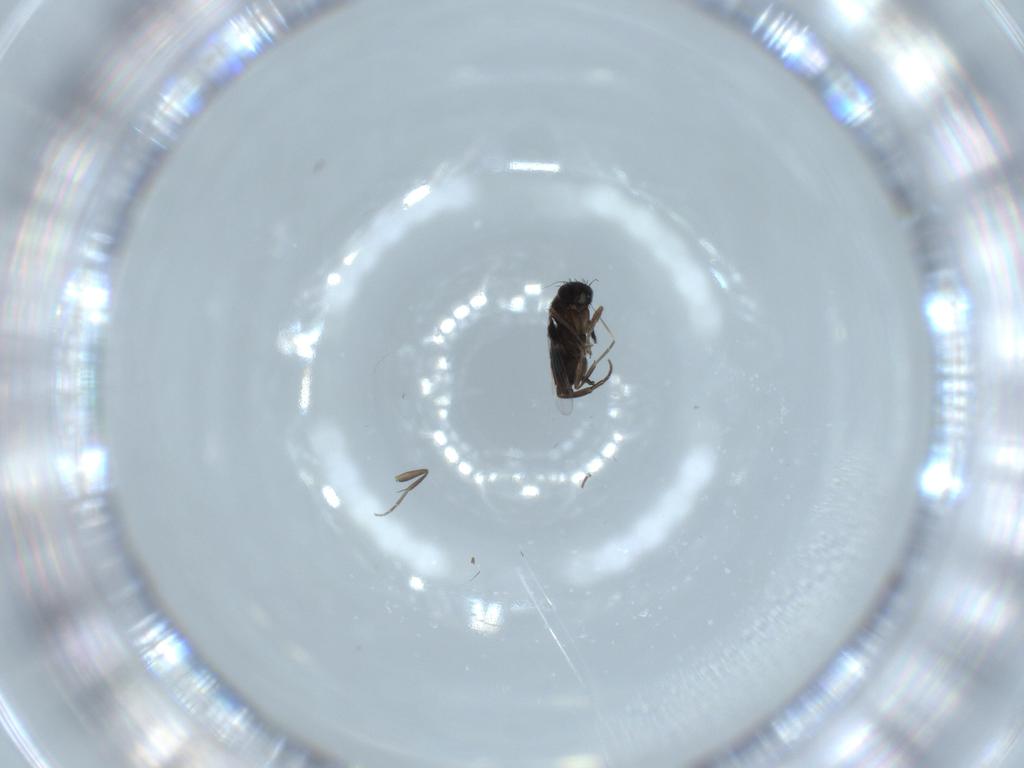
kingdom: Animalia
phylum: Arthropoda
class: Insecta
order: Diptera
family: Phoridae
